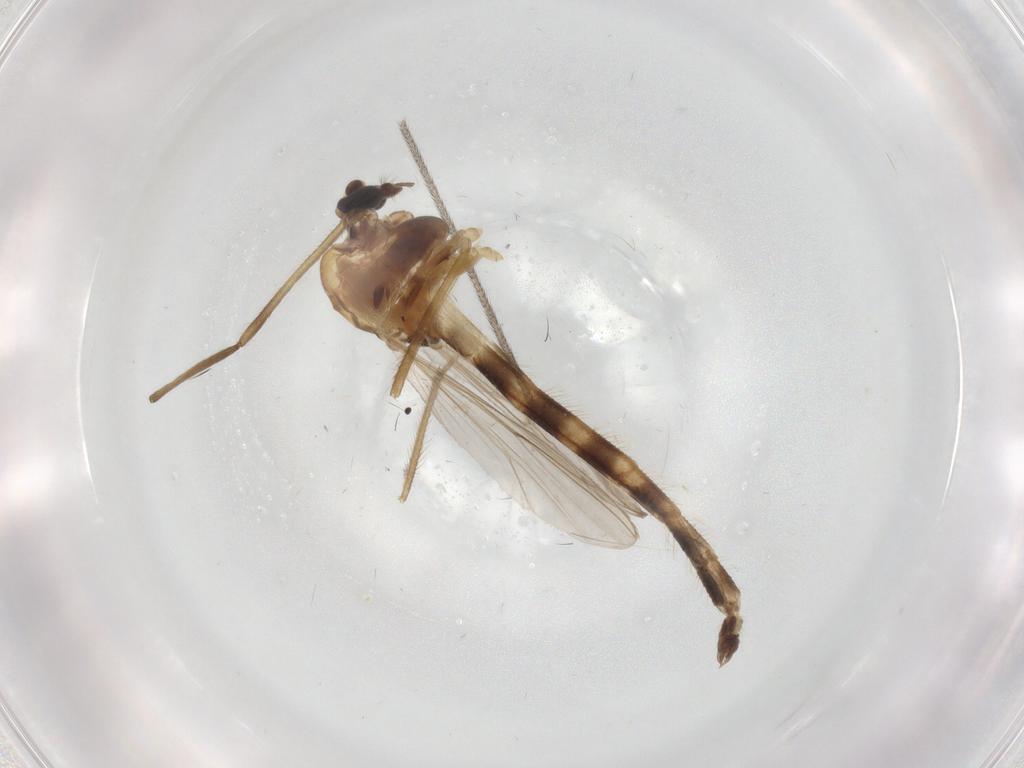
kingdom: Animalia
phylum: Arthropoda
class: Insecta
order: Diptera
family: Chironomidae
